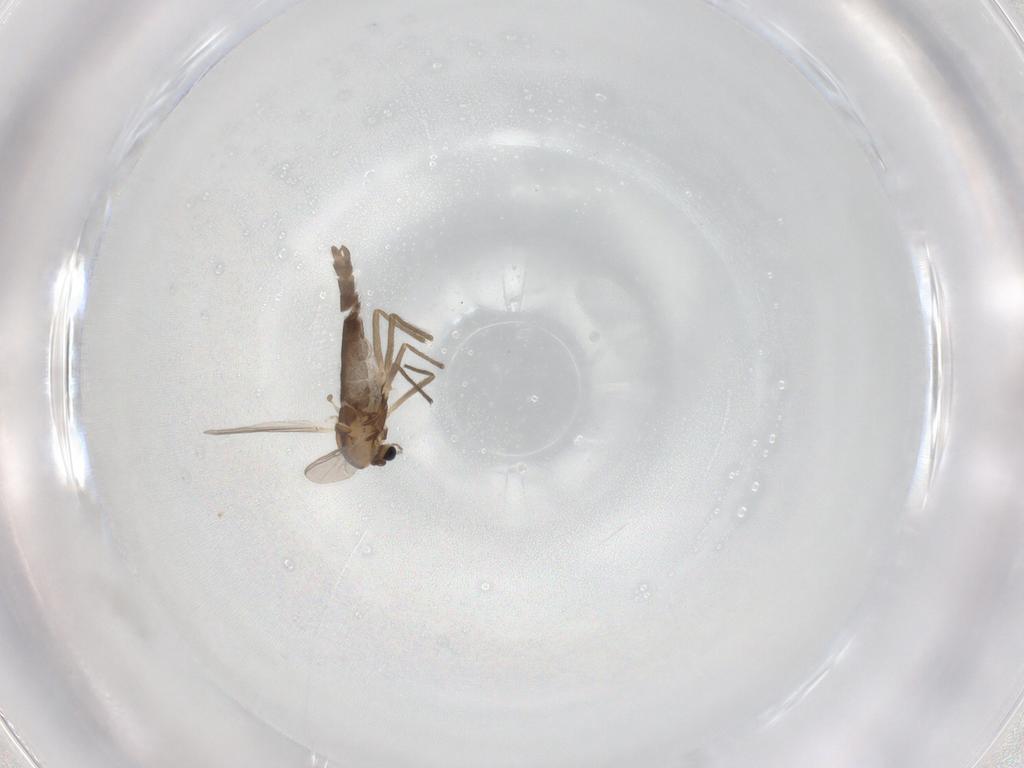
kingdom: Animalia
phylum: Arthropoda
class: Insecta
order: Diptera
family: Chironomidae
